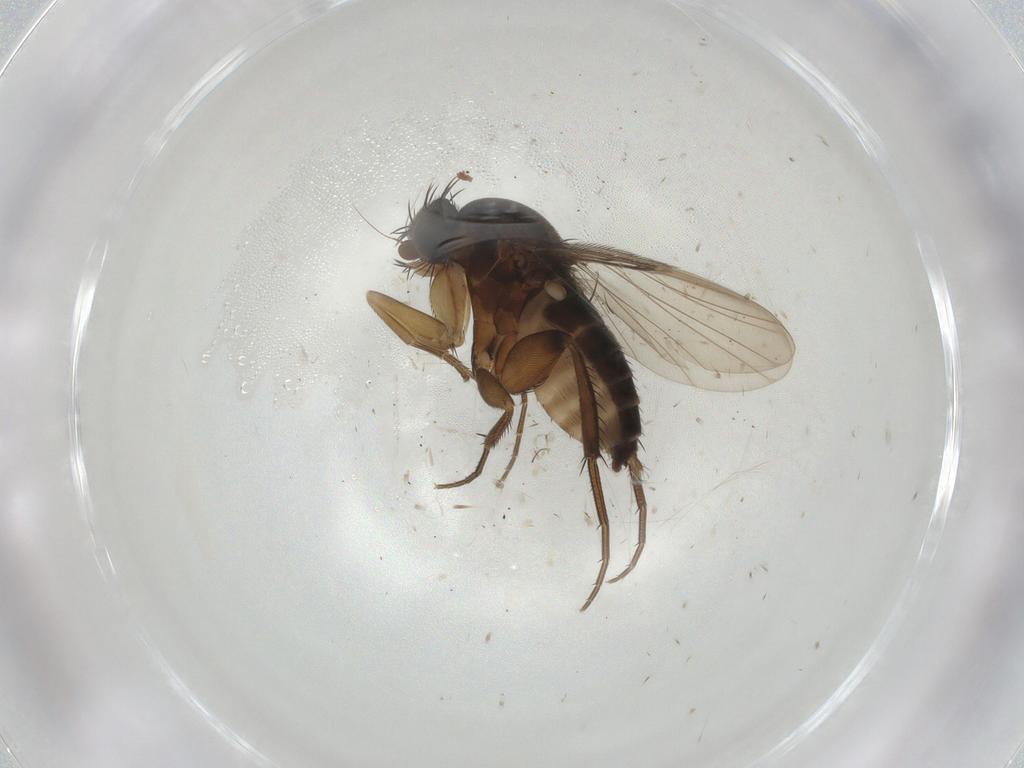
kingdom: Animalia
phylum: Arthropoda
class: Insecta
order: Diptera
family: Phoridae
